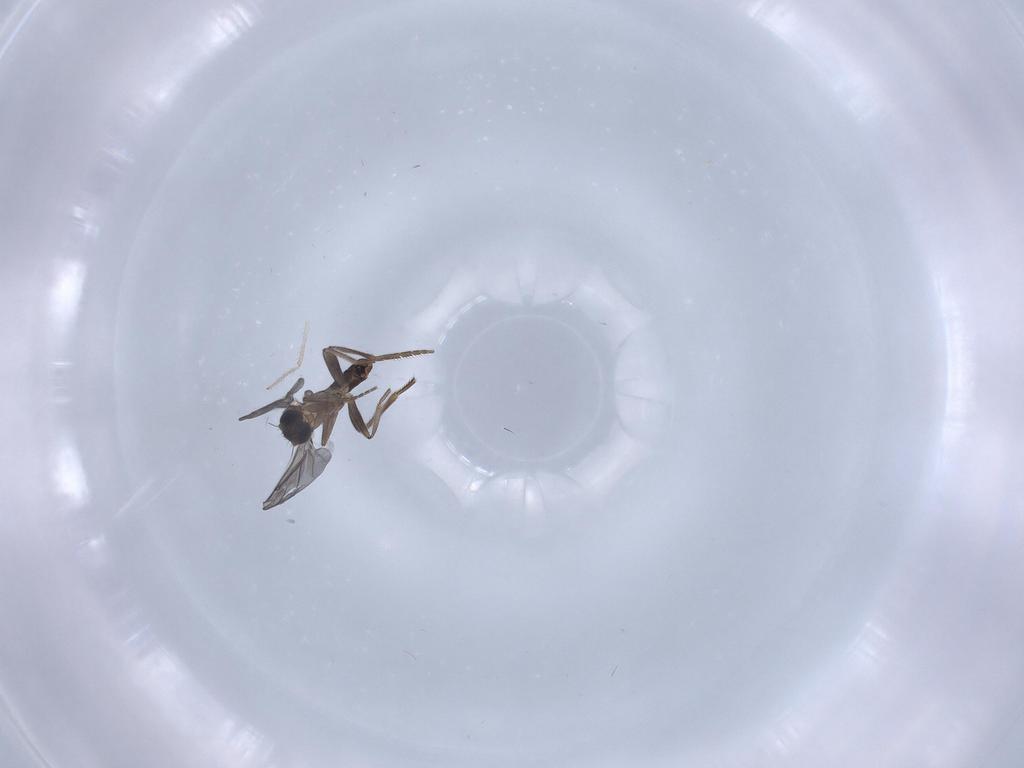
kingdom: Animalia
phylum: Arthropoda
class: Insecta
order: Diptera
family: Phoridae
